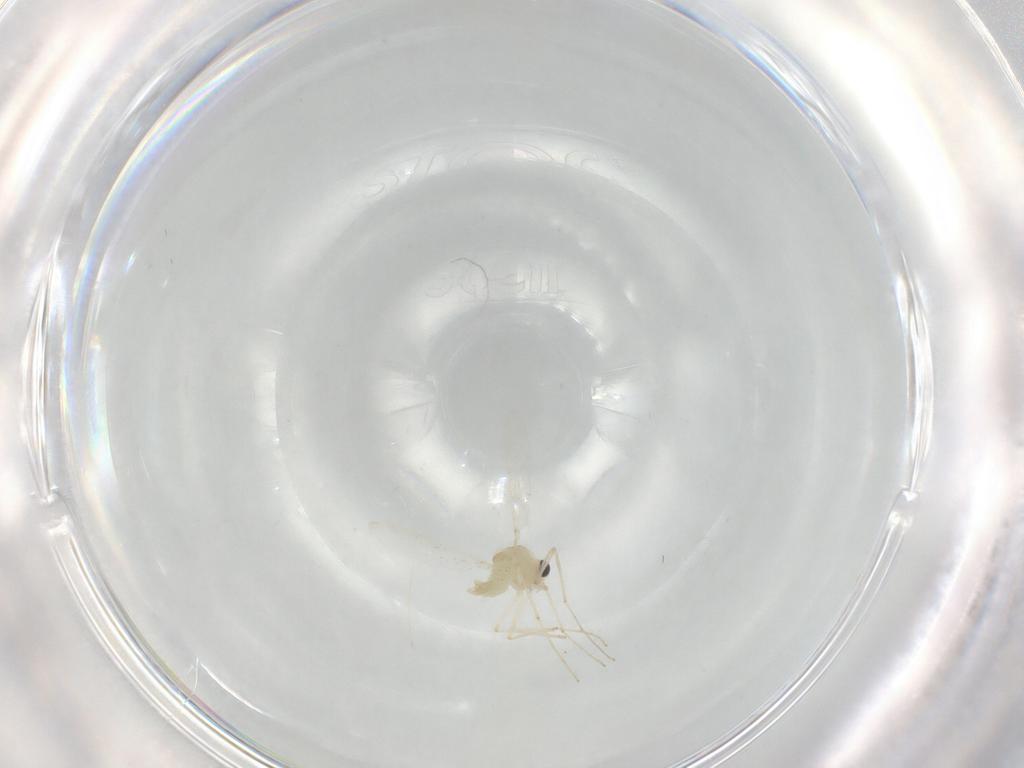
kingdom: Animalia
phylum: Arthropoda
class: Insecta
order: Diptera
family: Chironomidae
